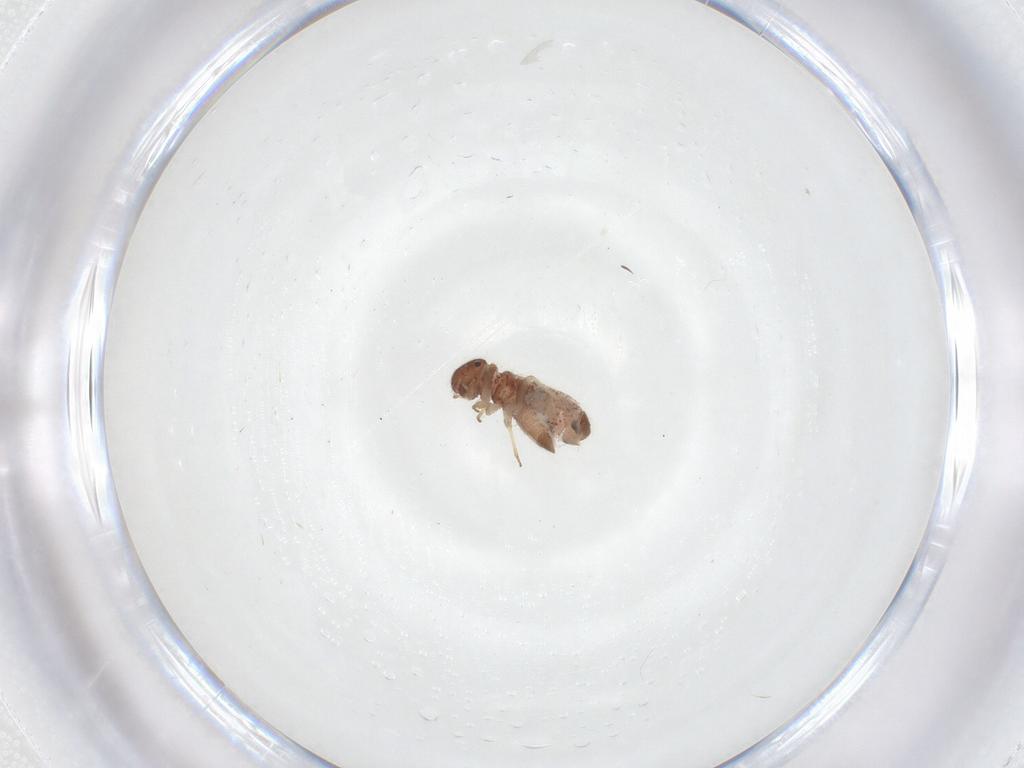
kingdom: Animalia
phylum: Arthropoda
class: Insecta
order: Psocodea
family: Archipsocidae
